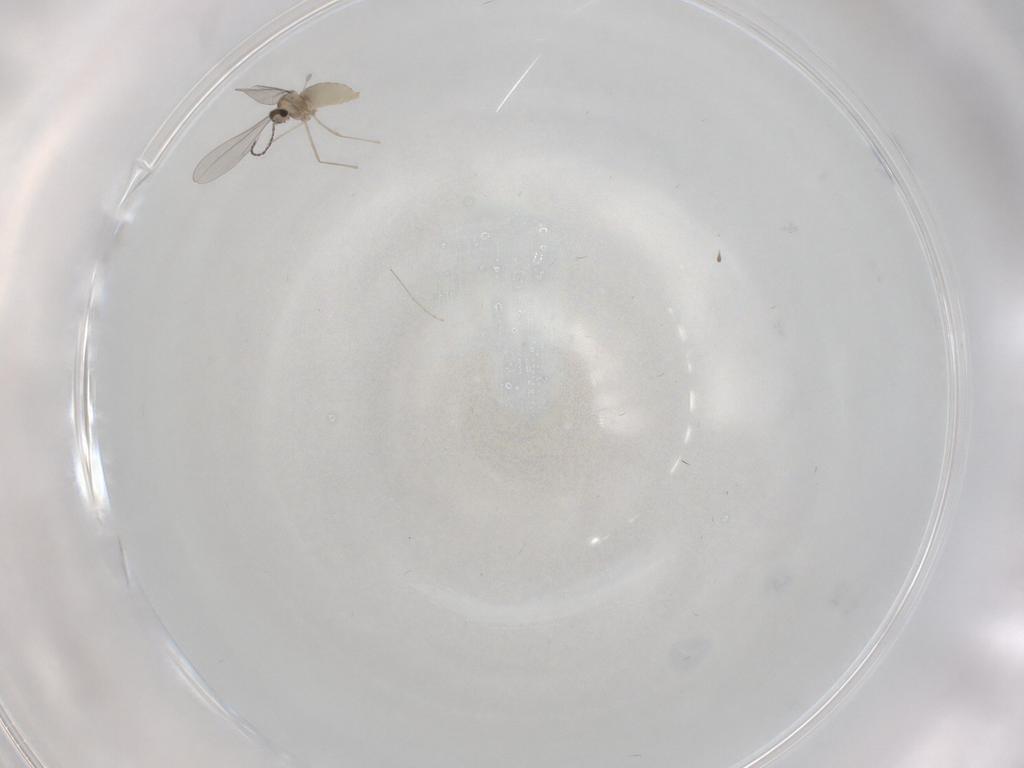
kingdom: Animalia
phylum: Arthropoda
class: Insecta
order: Diptera
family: Cecidomyiidae
